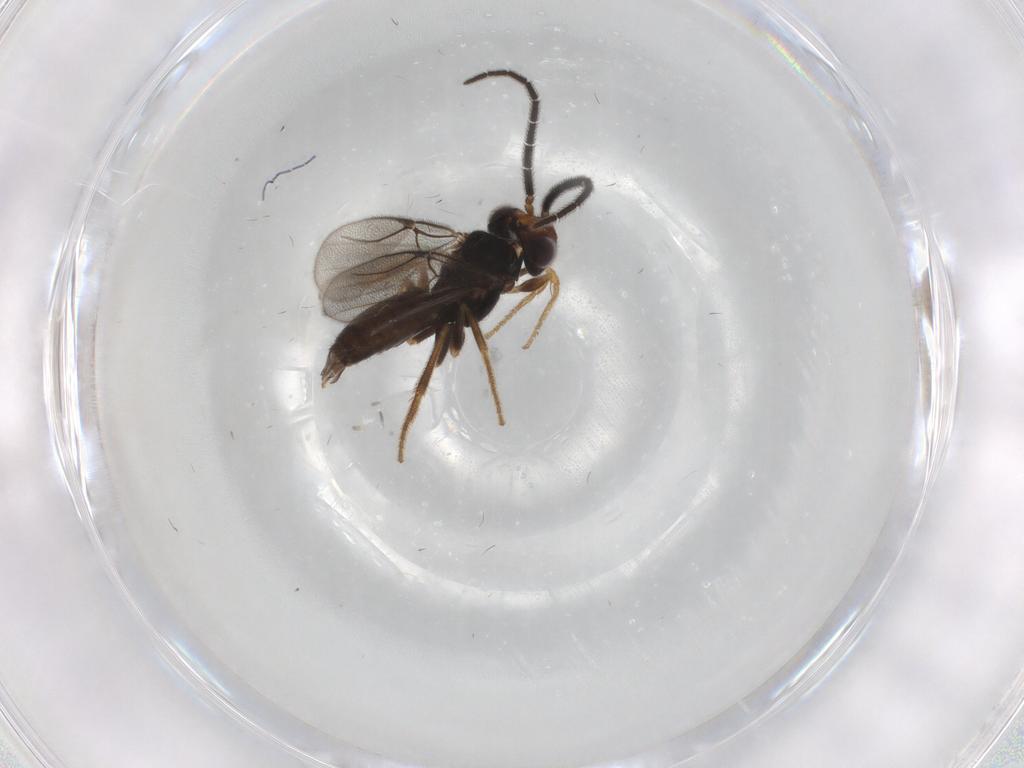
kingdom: Animalia
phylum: Arthropoda
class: Insecta
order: Hymenoptera
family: Dryinidae
